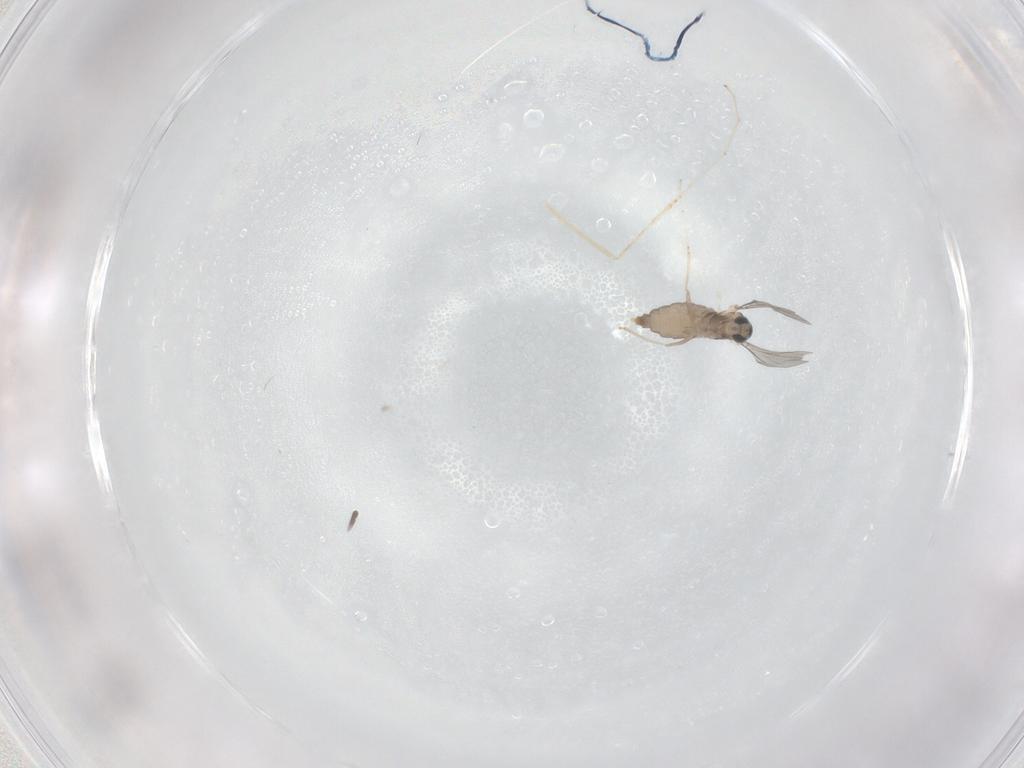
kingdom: Animalia
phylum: Arthropoda
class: Insecta
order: Diptera
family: Cecidomyiidae
